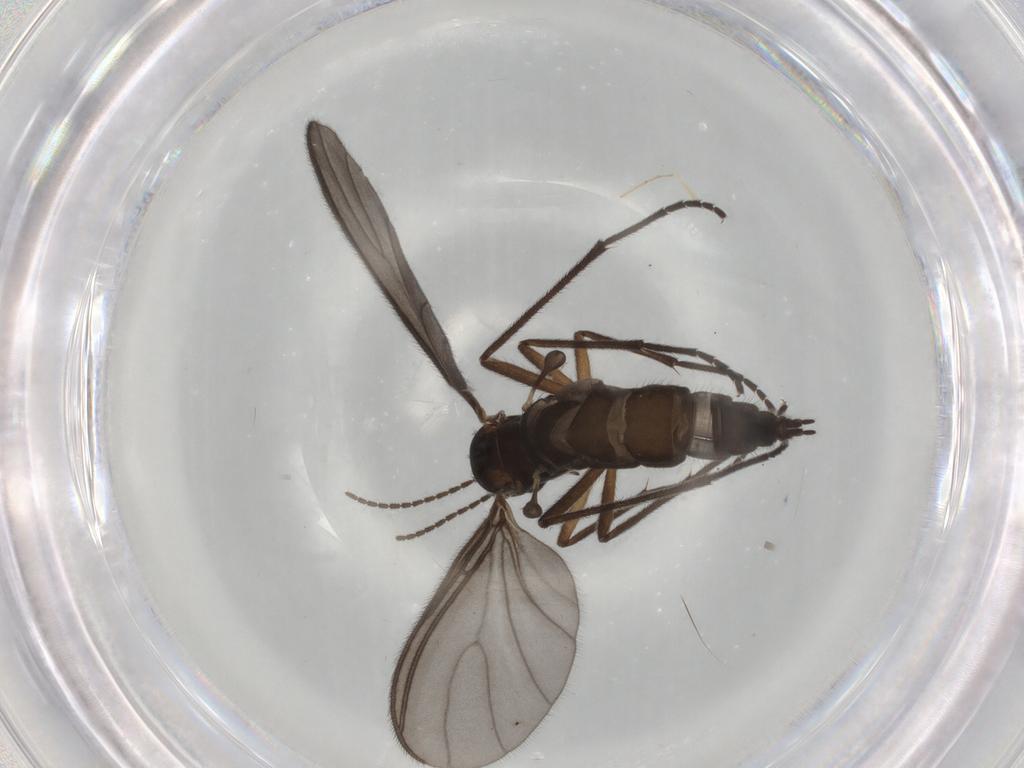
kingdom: Animalia
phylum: Arthropoda
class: Insecta
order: Diptera
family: Sciaridae
